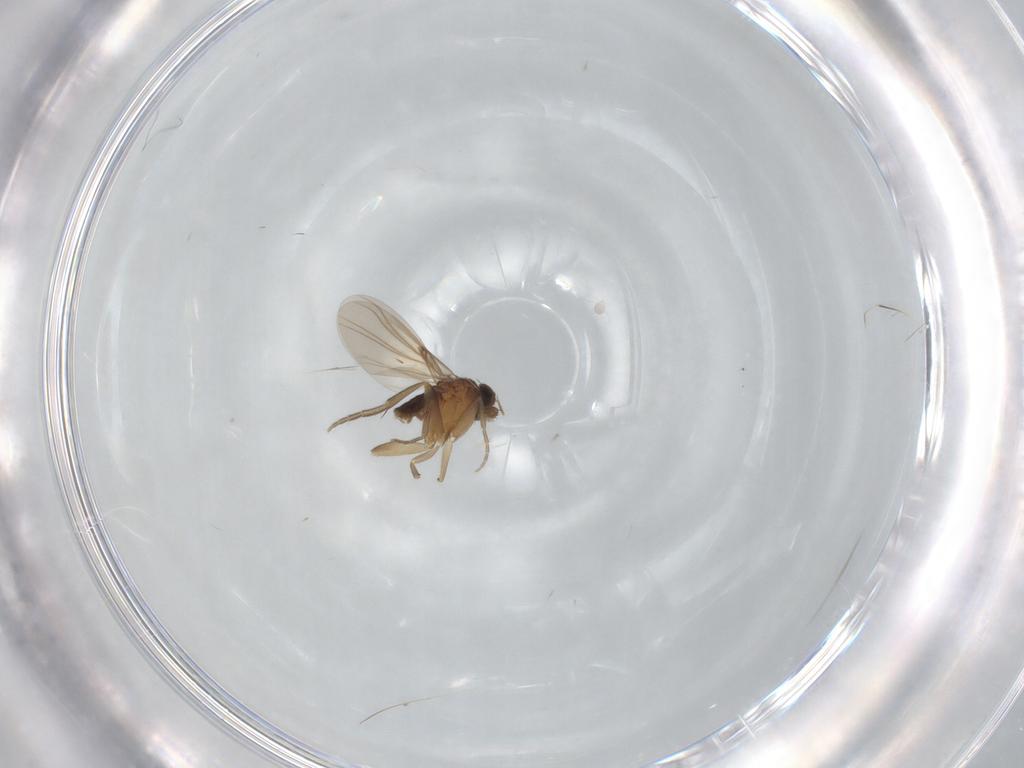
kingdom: Animalia
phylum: Arthropoda
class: Insecta
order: Diptera
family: Phoridae
